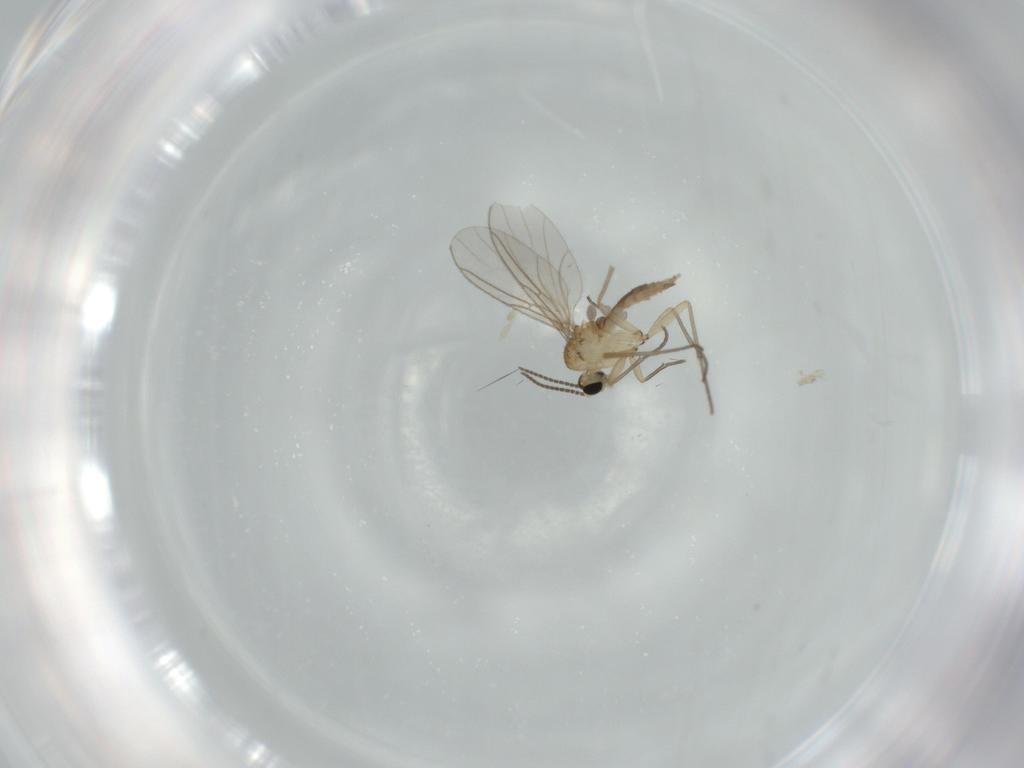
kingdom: Animalia
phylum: Arthropoda
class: Insecta
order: Diptera
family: Sciaridae
